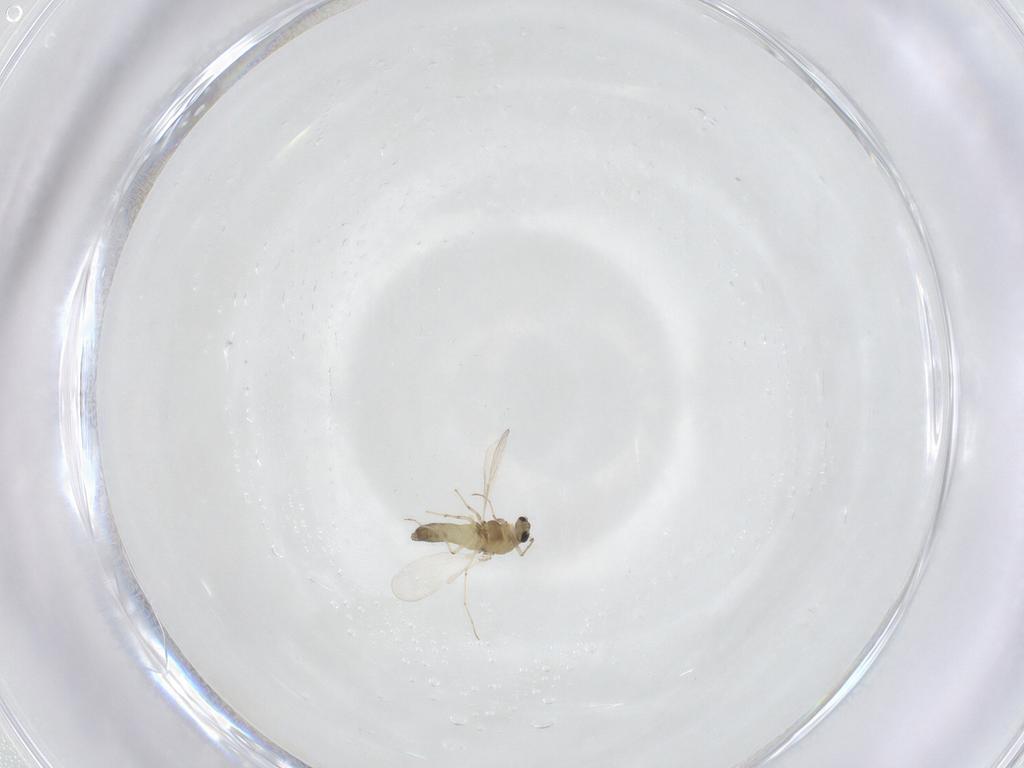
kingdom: Animalia
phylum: Arthropoda
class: Insecta
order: Diptera
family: Chironomidae
